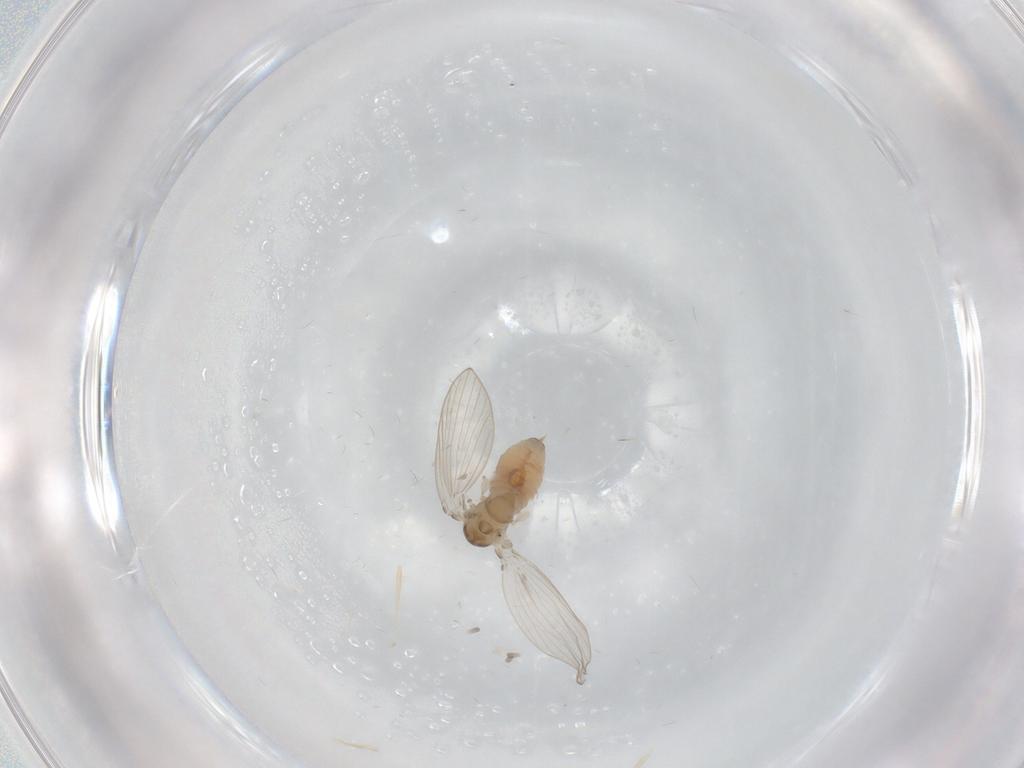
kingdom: Animalia
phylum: Arthropoda
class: Insecta
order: Diptera
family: Psychodidae
